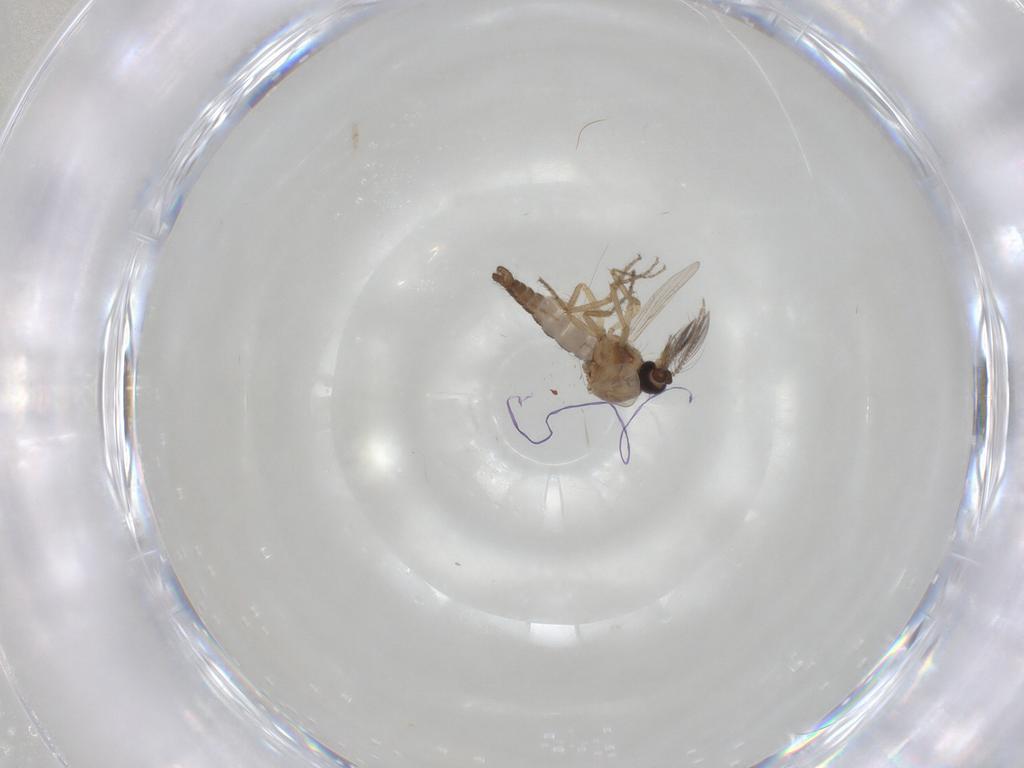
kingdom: Animalia
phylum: Arthropoda
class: Insecta
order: Diptera
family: Ceratopogonidae
